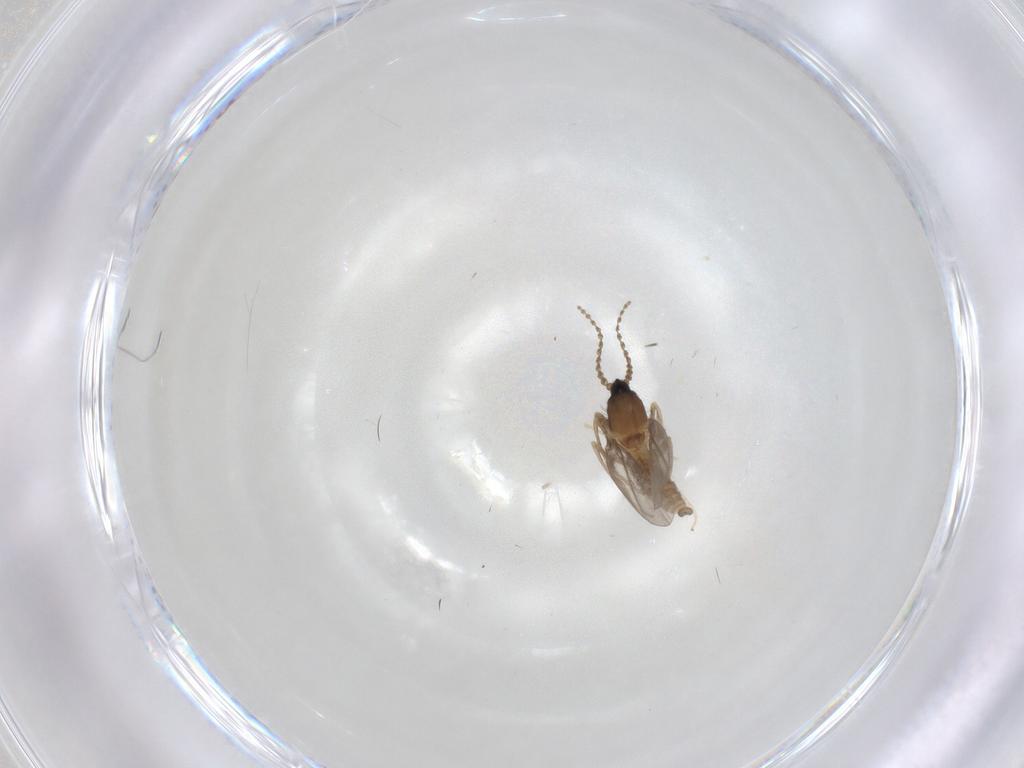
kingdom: Animalia
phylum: Arthropoda
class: Insecta
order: Diptera
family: Cecidomyiidae
